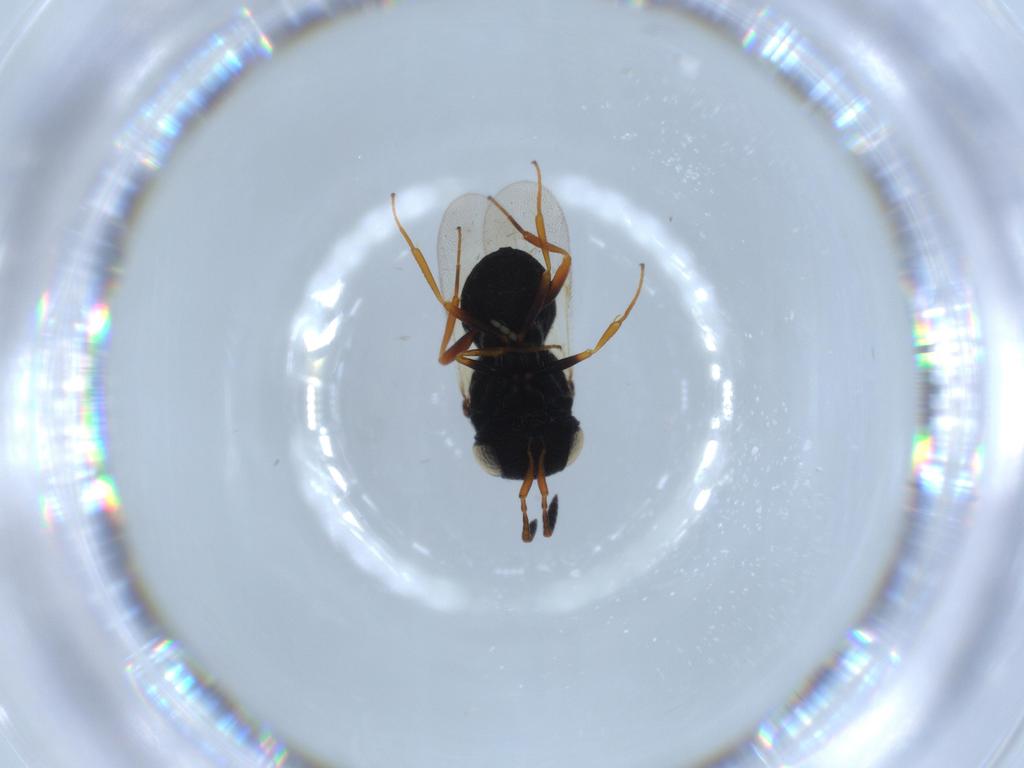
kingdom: Animalia
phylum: Arthropoda
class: Insecta
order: Hymenoptera
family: Scelionidae
